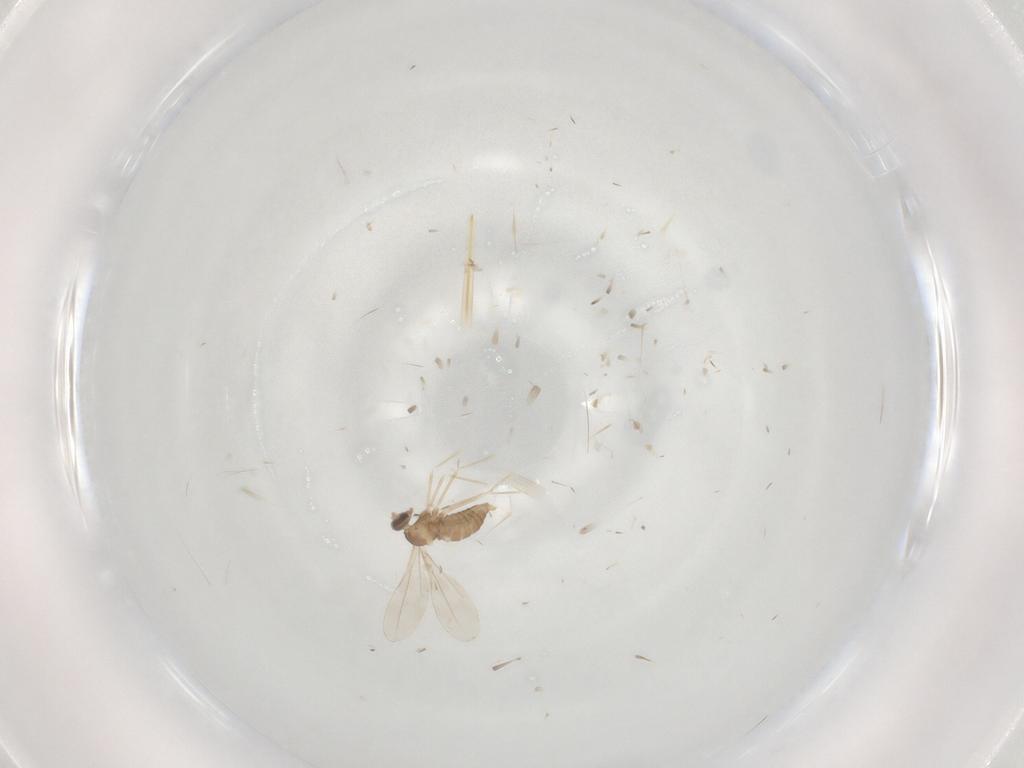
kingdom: Animalia
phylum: Arthropoda
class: Insecta
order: Diptera
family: Cecidomyiidae
